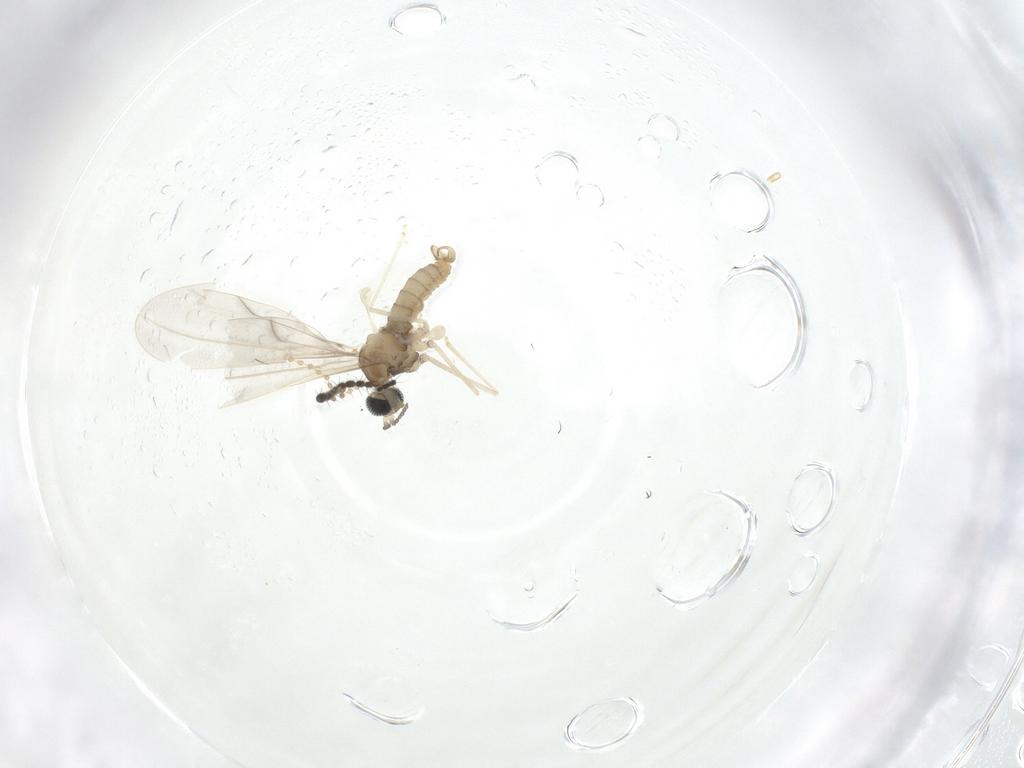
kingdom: Animalia
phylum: Arthropoda
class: Insecta
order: Diptera
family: Cecidomyiidae
